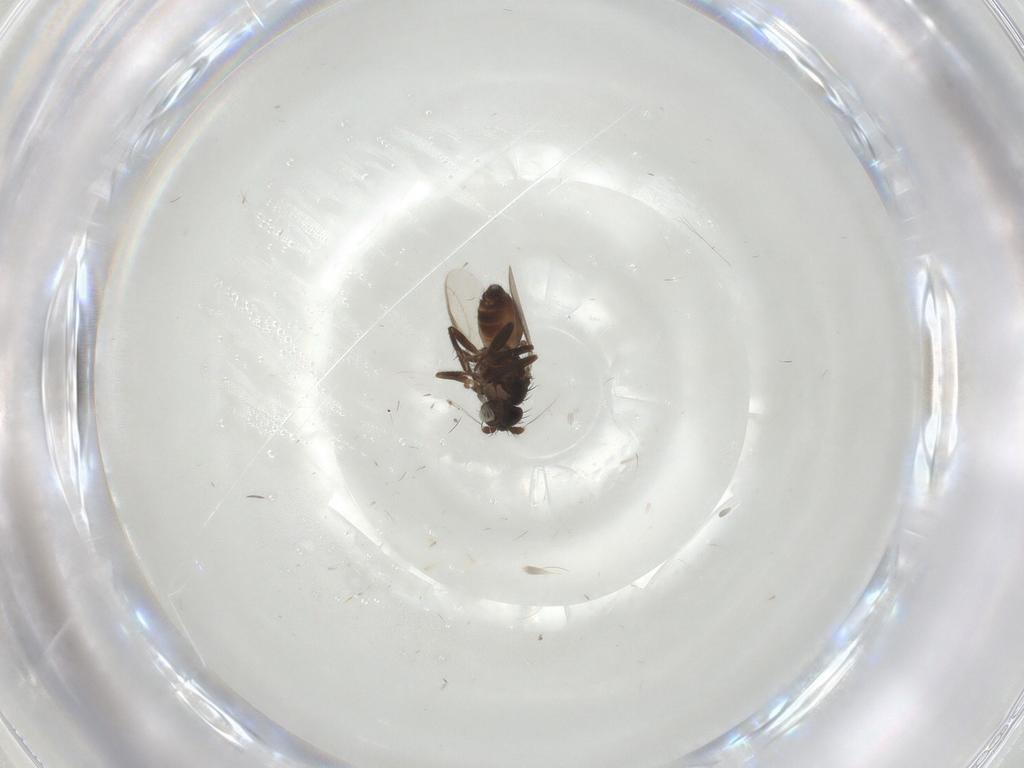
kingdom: Animalia
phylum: Arthropoda
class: Insecta
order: Diptera
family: Sphaeroceridae
